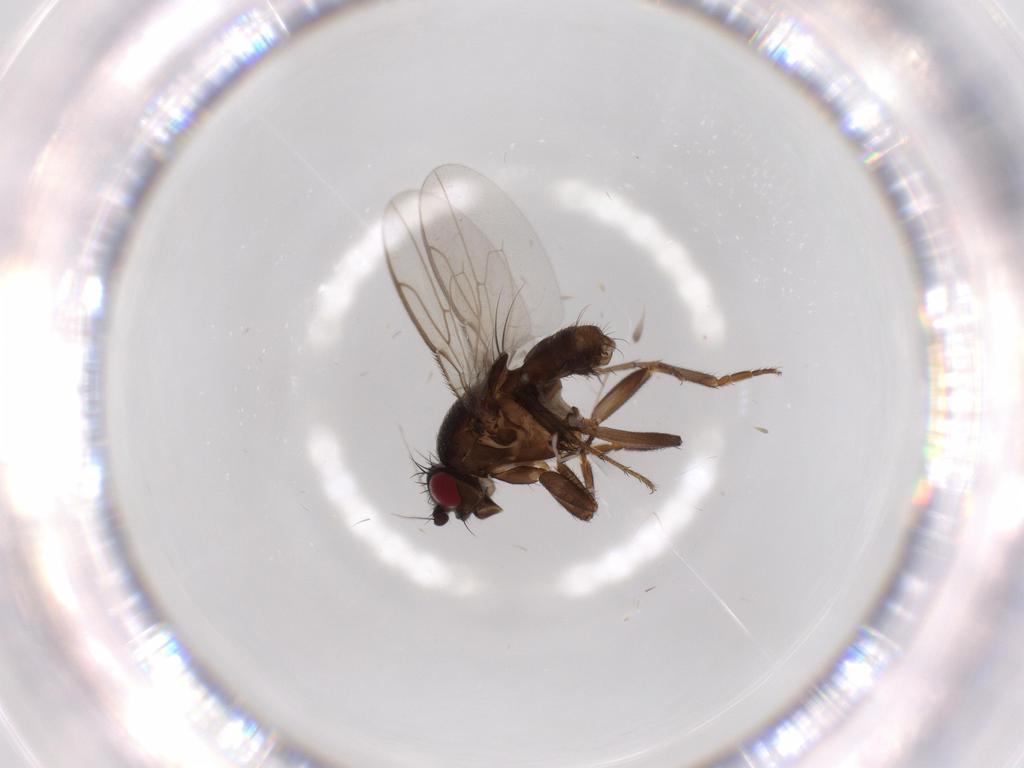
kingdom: Animalia
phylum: Arthropoda
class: Insecta
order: Diptera
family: Sphaeroceridae
